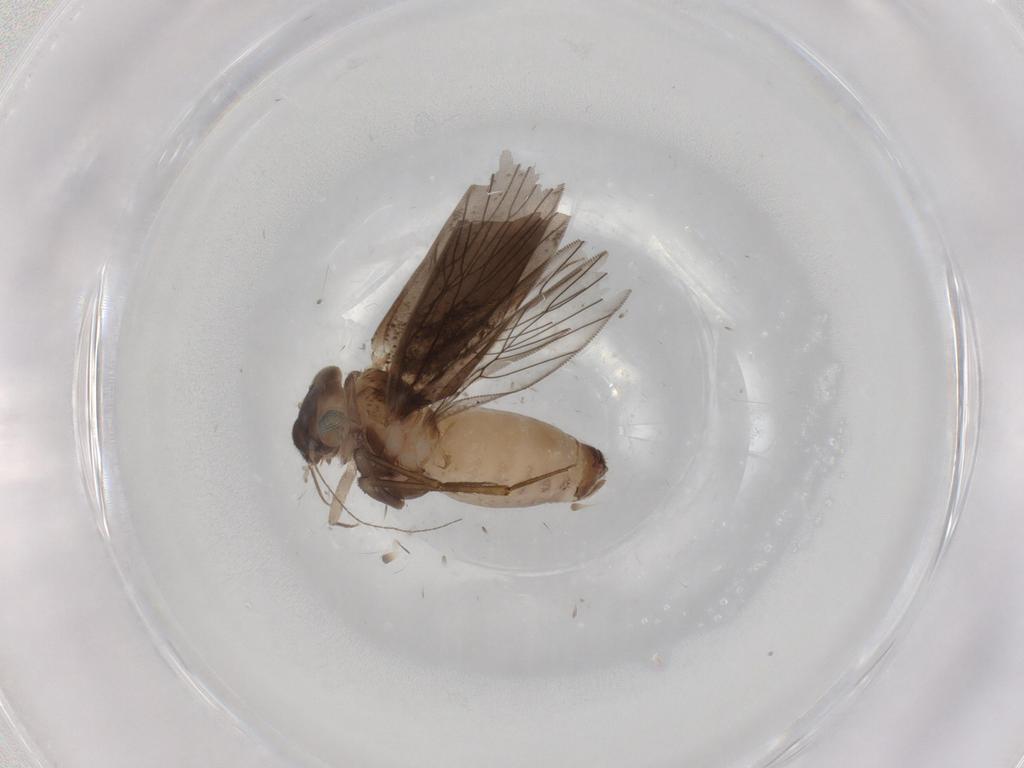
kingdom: Animalia
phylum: Arthropoda
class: Insecta
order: Psocodea
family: Lepidopsocidae
